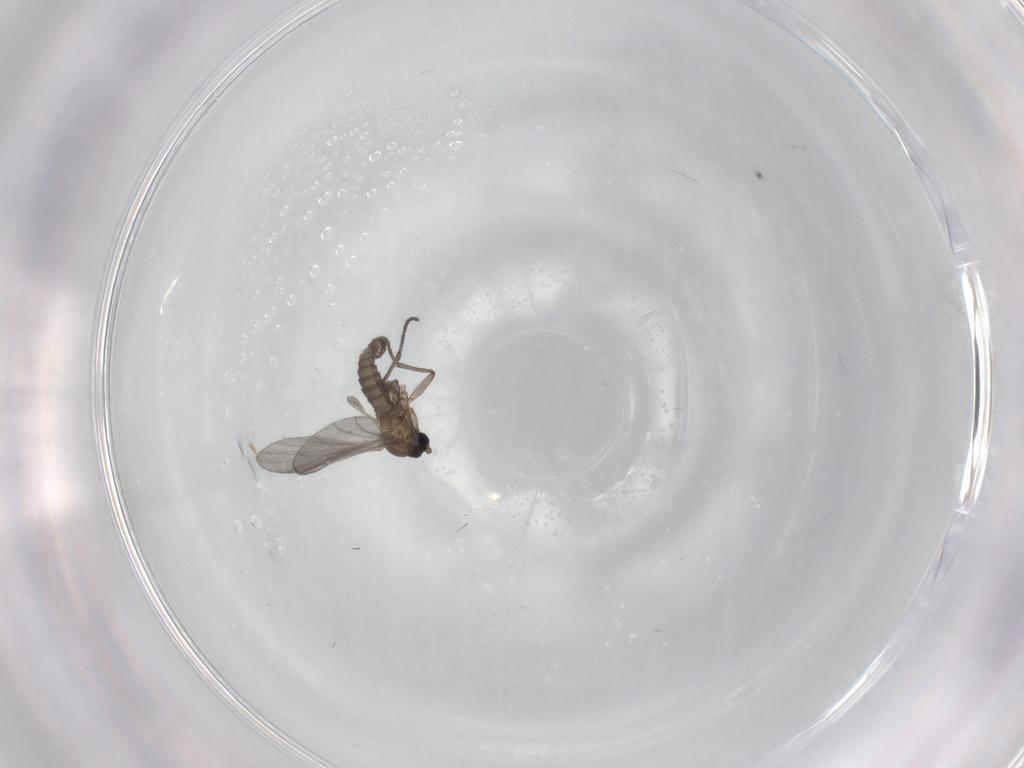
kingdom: Animalia
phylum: Arthropoda
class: Insecta
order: Diptera
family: Sciaridae
